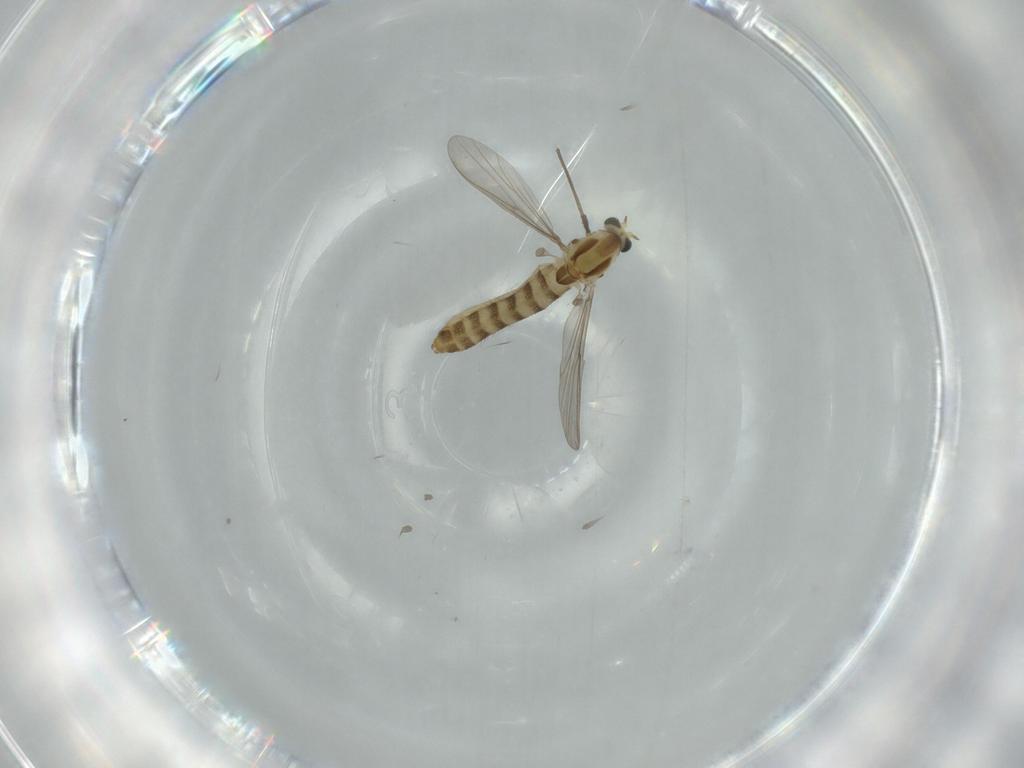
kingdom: Animalia
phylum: Arthropoda
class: Insecta
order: Diptera
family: Chironomidae
